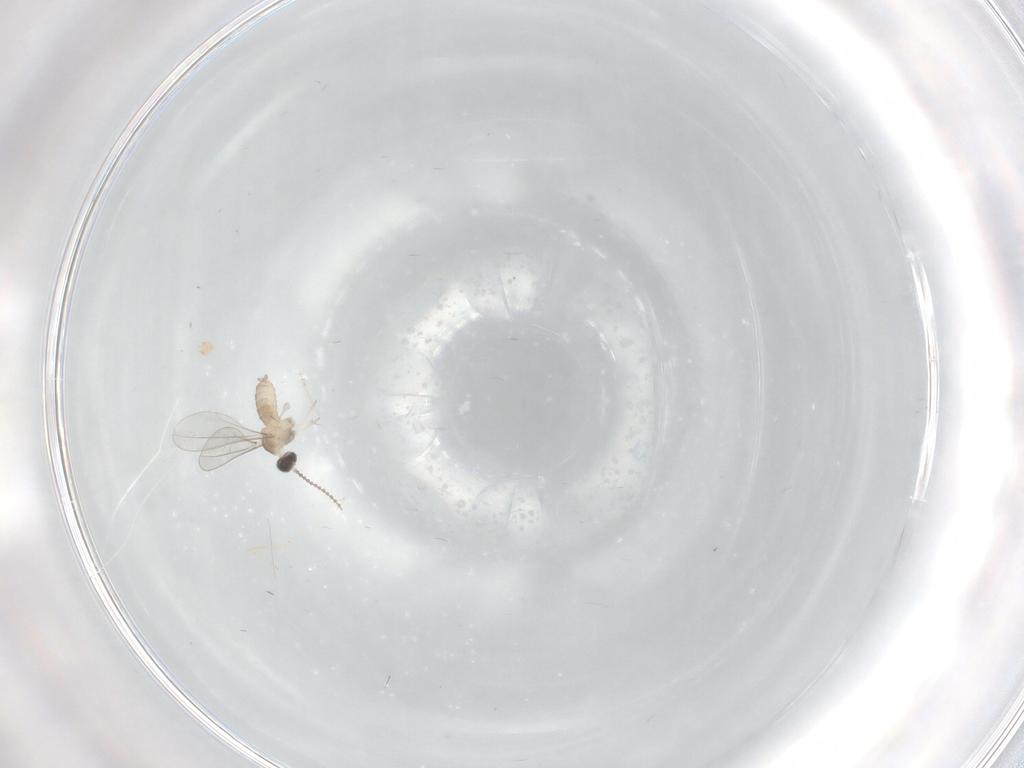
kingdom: Animalia
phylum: Arthropoda
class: Insecta
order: Diptera
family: Cecidomyiidae
